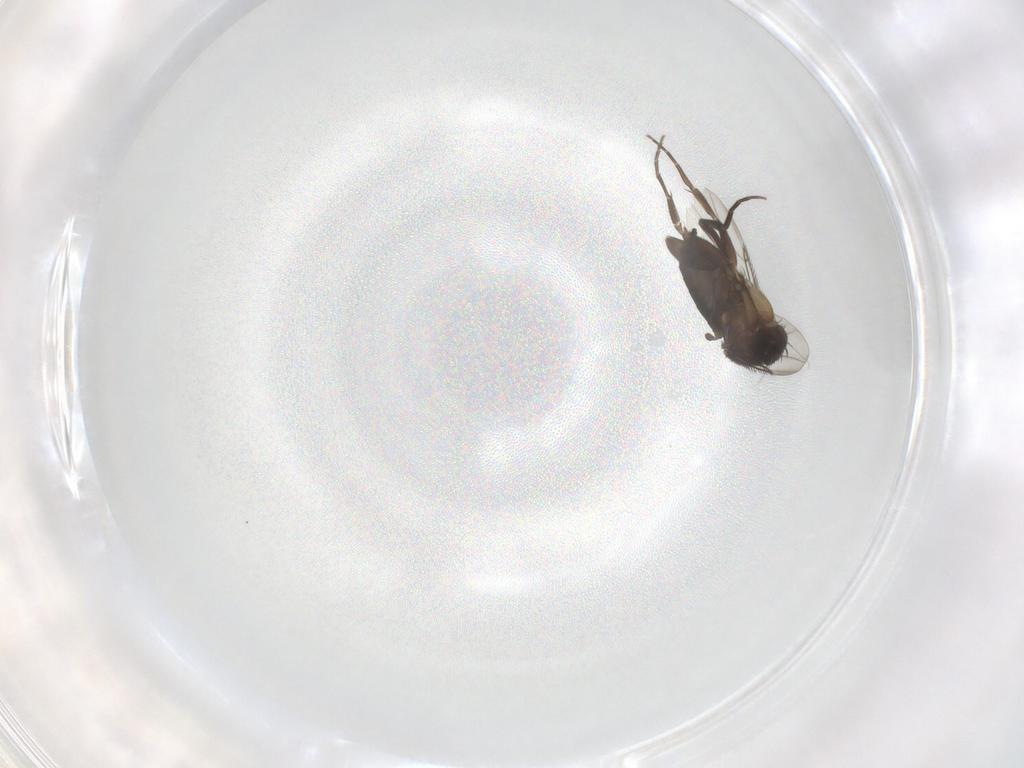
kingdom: Animalia
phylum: Arthropoda
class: Insecta
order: Diptera
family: Phoridae
